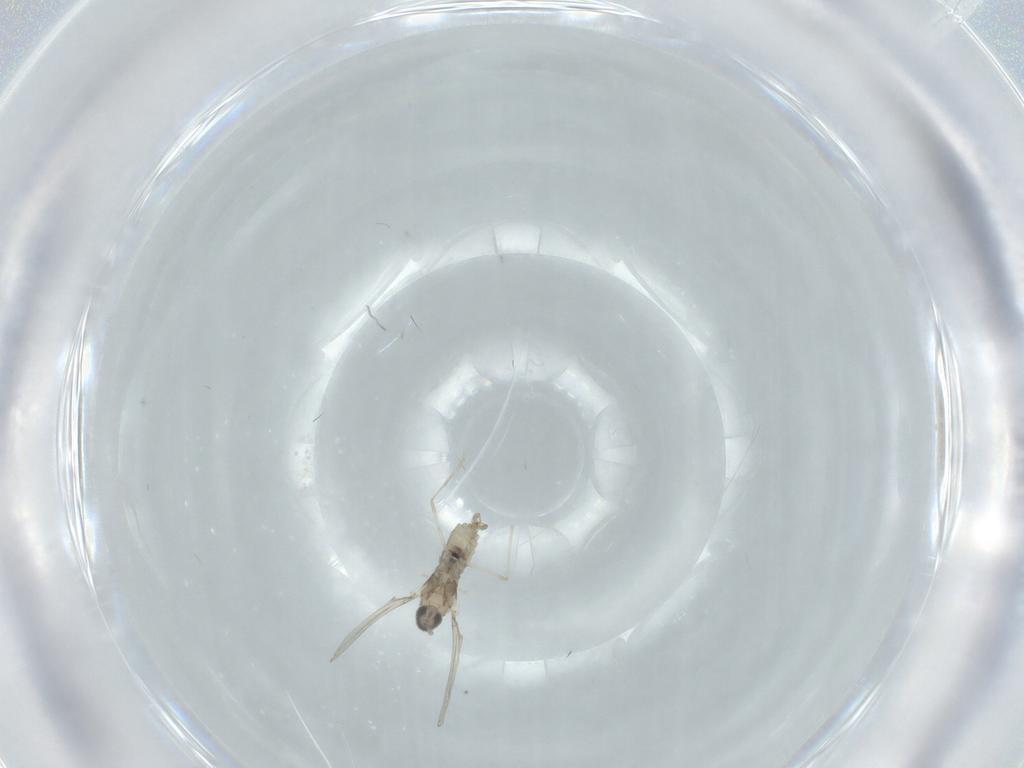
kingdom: Animalia
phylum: Arthropoda
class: Insecta
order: Diptera
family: Cecidomyiidae
